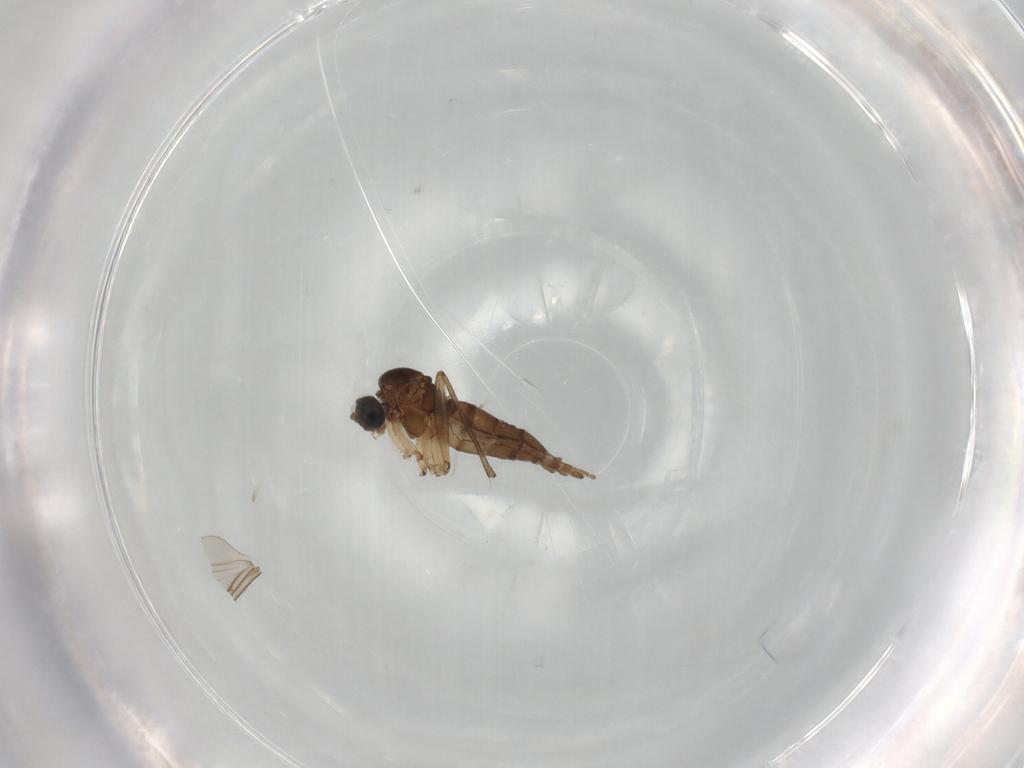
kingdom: Animalia
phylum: Arthropoda
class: Insecta
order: Diptera
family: Sciaridae
